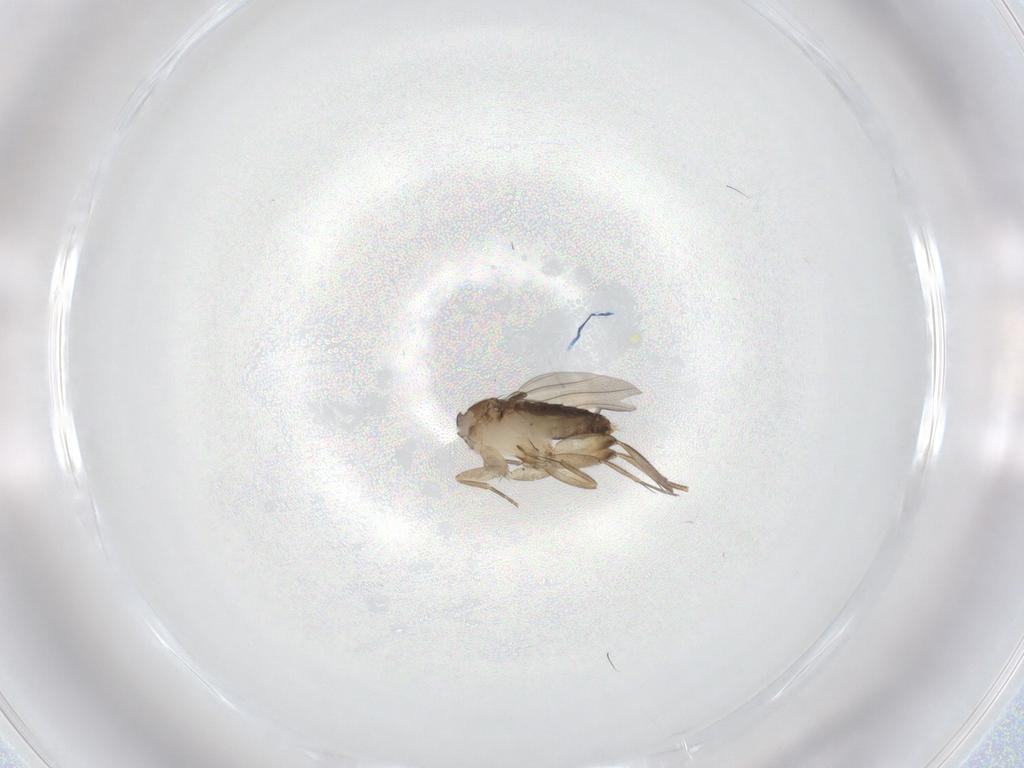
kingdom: Animalia
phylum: Arthropoda
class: Insecta
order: Diptera
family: Phoridae
